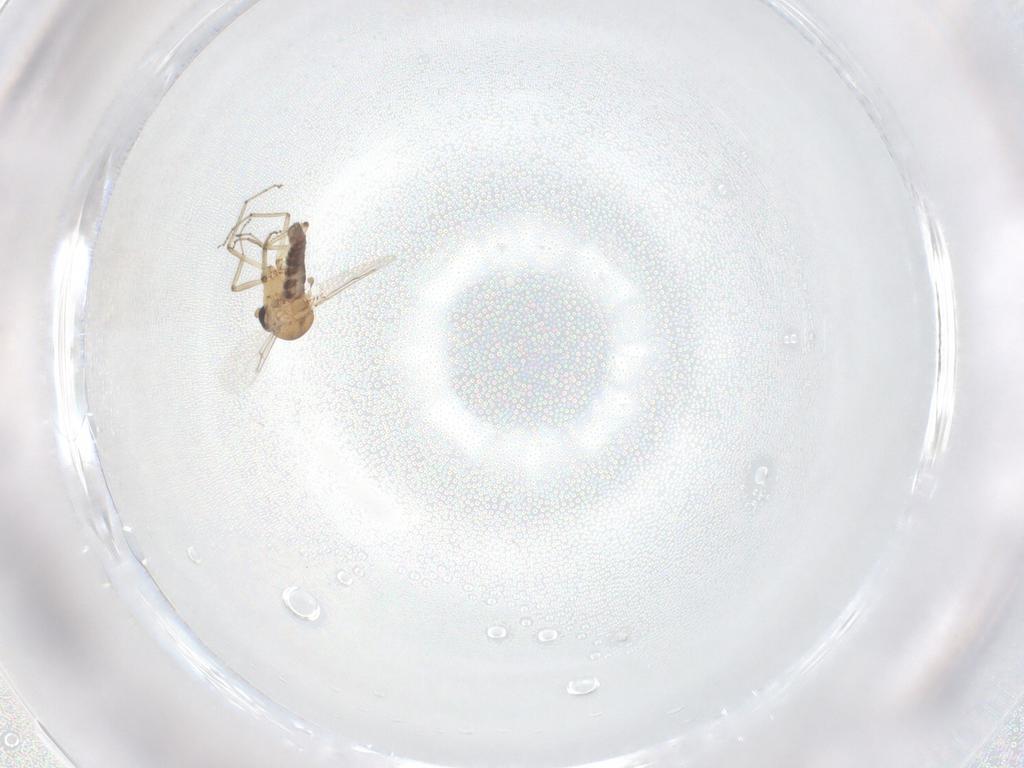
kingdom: Animalia
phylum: Arthropoda
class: Insecta
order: Diptera
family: Ceratopogonidae
